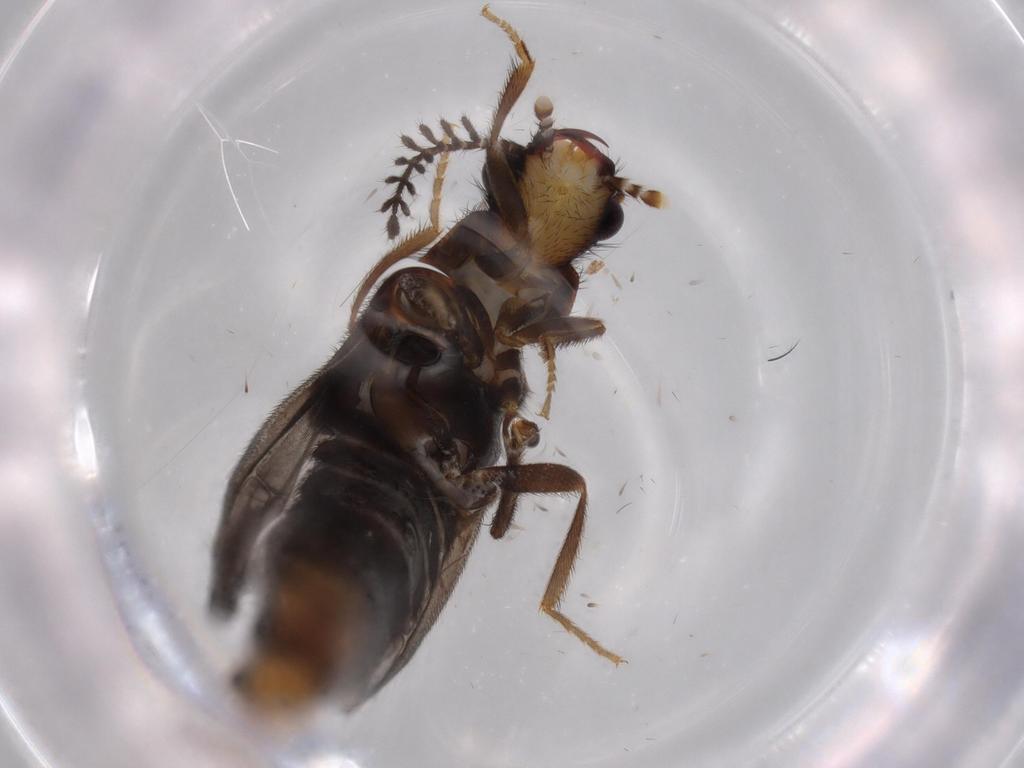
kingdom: Animalia
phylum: Arthropoda
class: Insecta
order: Coleoptera
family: Phengodidae
